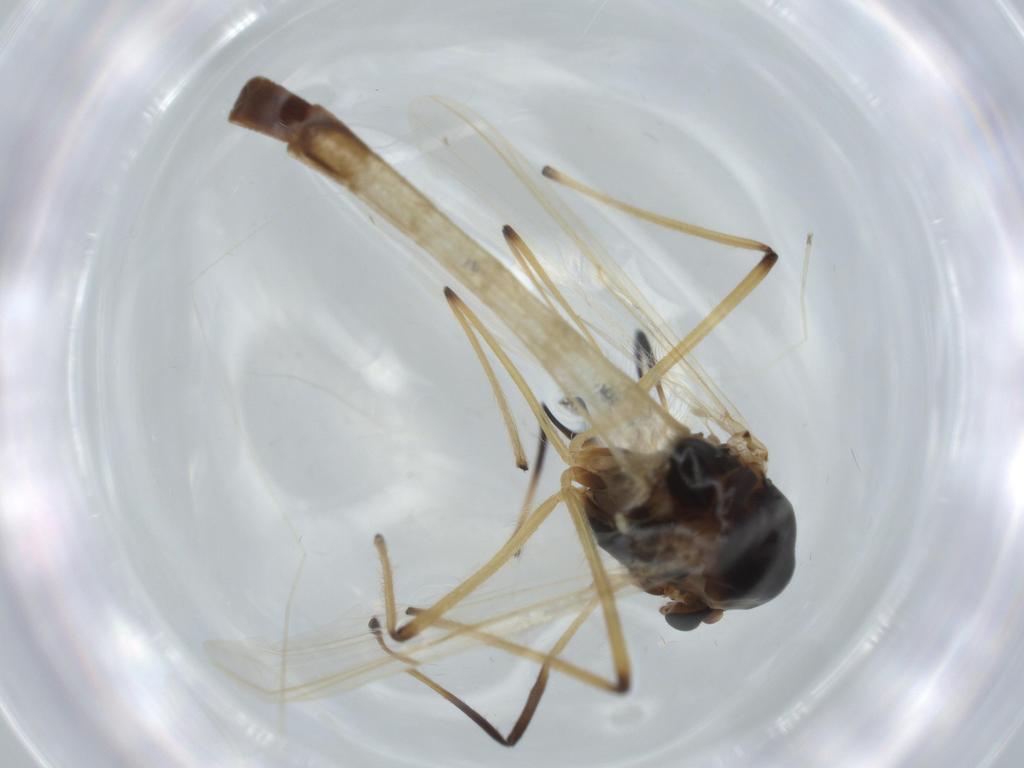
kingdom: Animalia
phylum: Arthropoda
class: Insecta
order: Diptera
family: Chironomidae
